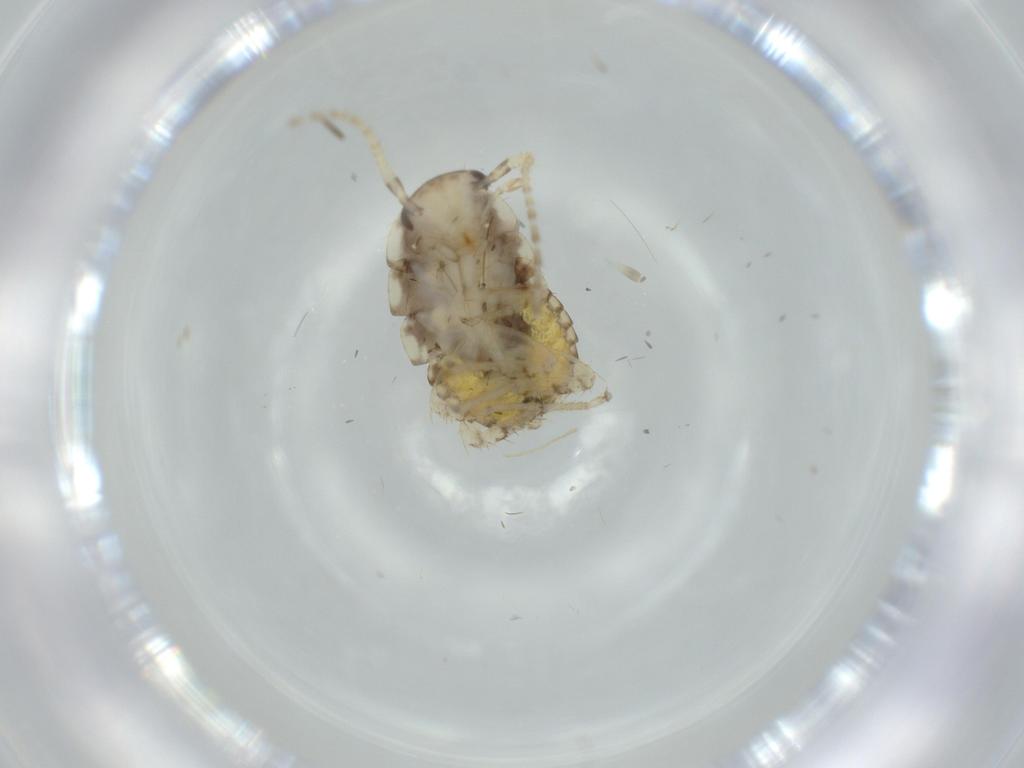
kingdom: Animalia
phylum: Arthropoda
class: Insecta
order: Blattodea
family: Ectobiidae
